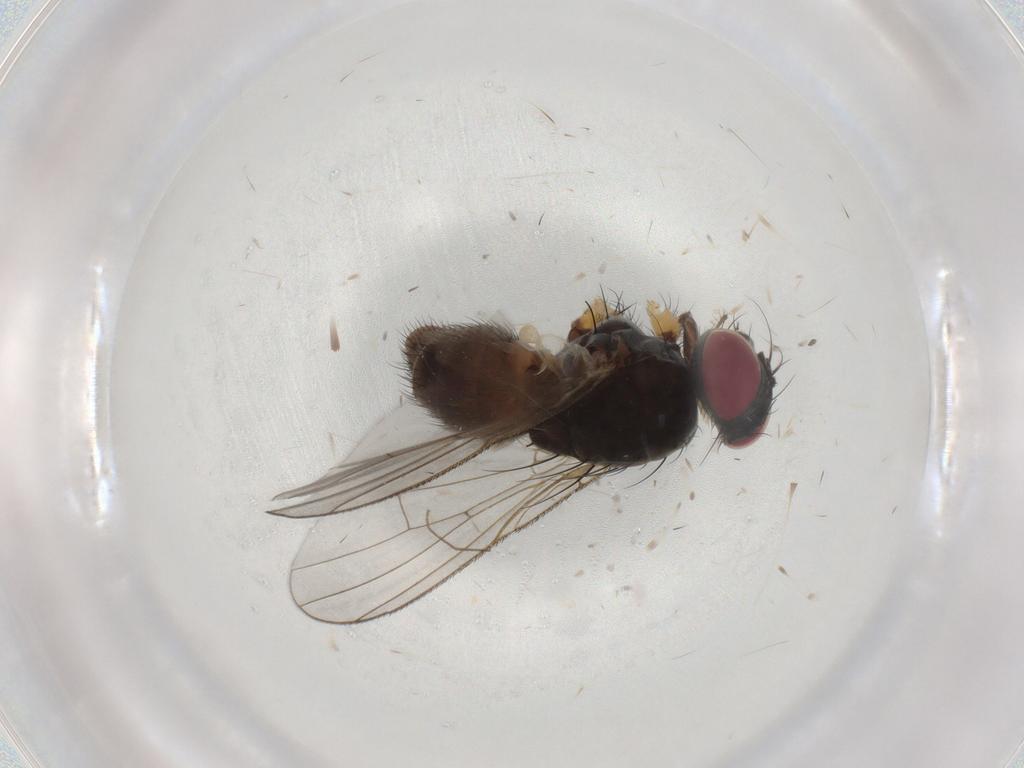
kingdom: Animalia
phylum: Arthropoda
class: Insecta
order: Diptera
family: Muscidae
